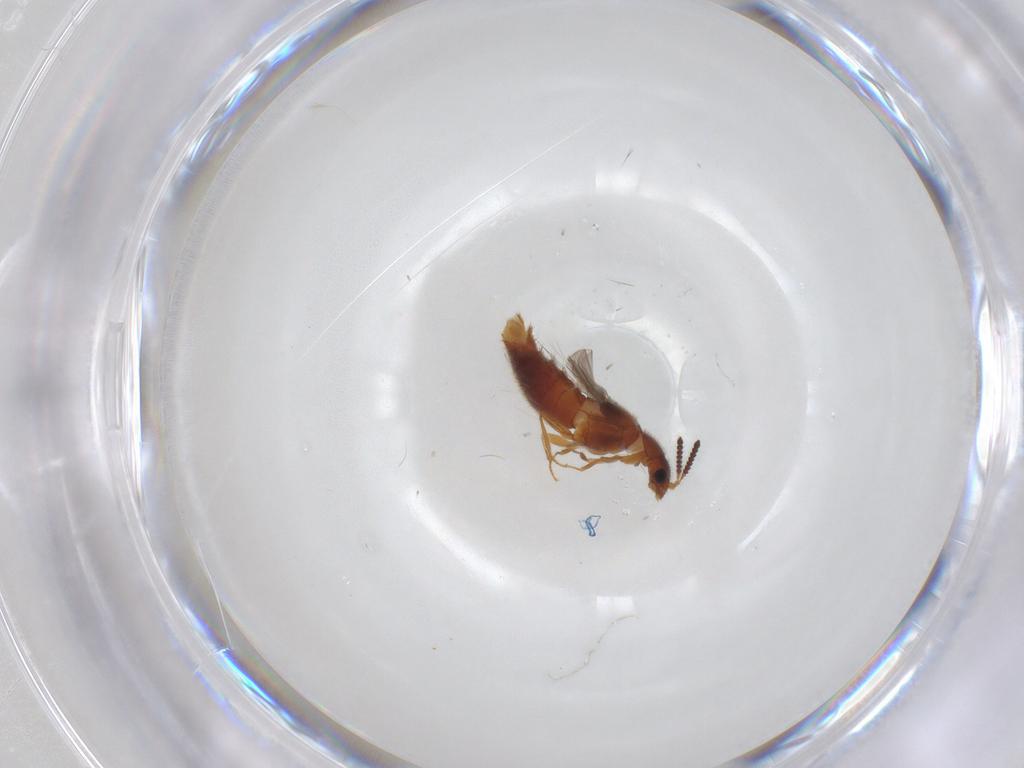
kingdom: Animalia
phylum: Arthropoda
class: Insecta
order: Coleoptera
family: Staphylinidae
